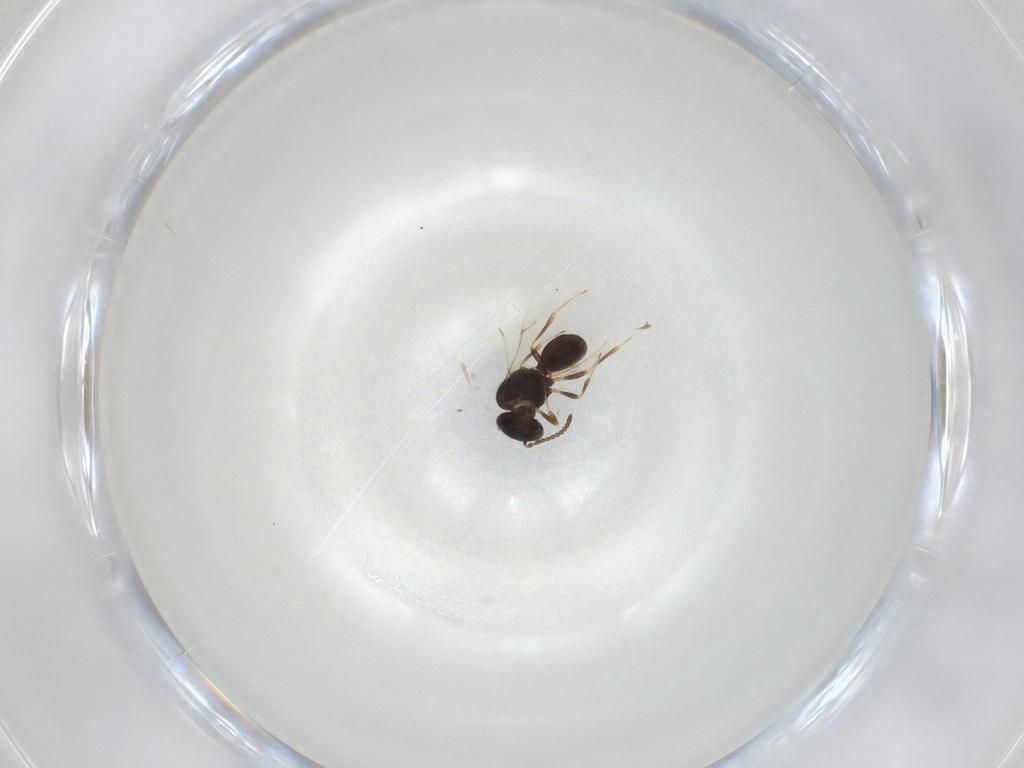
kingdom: Animalia
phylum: Arthropoda
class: Insecta
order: Hymenoptera
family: Scelionidae
